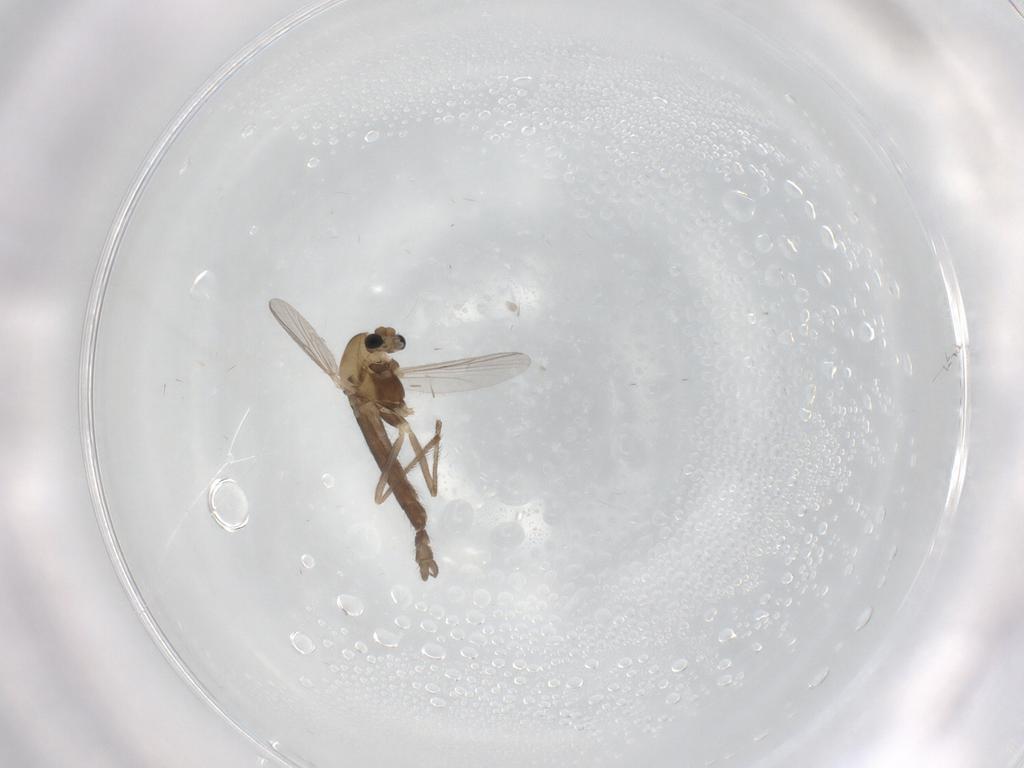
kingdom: Animalia
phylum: Arthropoda
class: Insecta
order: Diptera
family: Chironomidae
